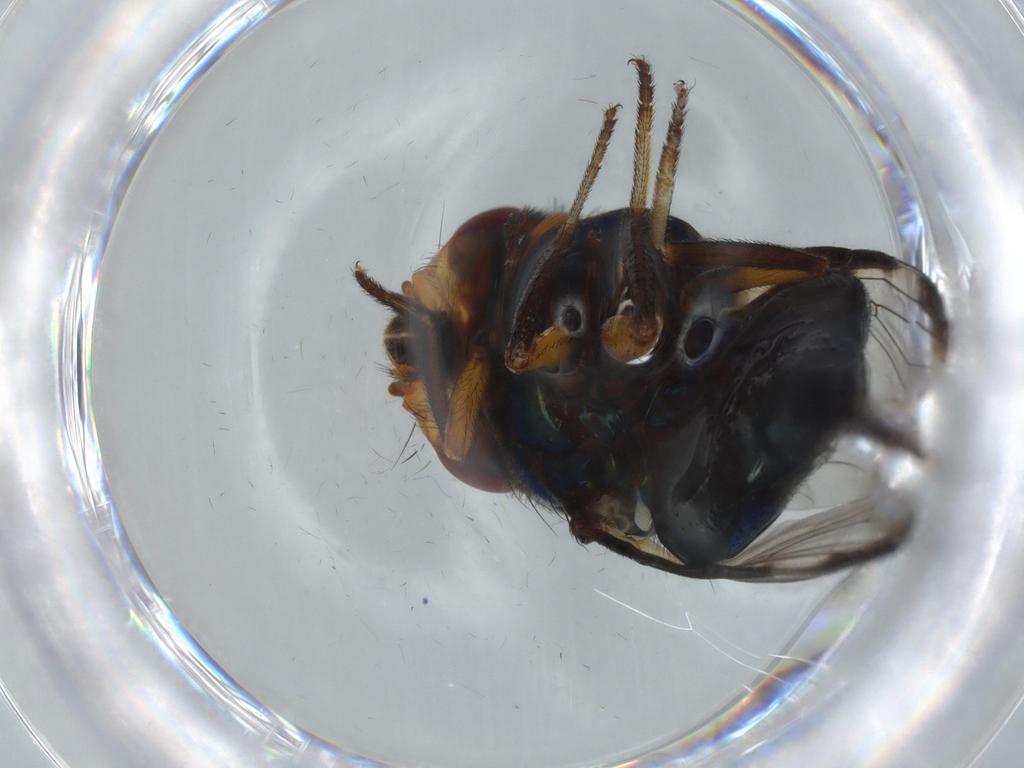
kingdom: Animalia
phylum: Arthropoda
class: Insecta
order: Diptera
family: Ulidiidae
